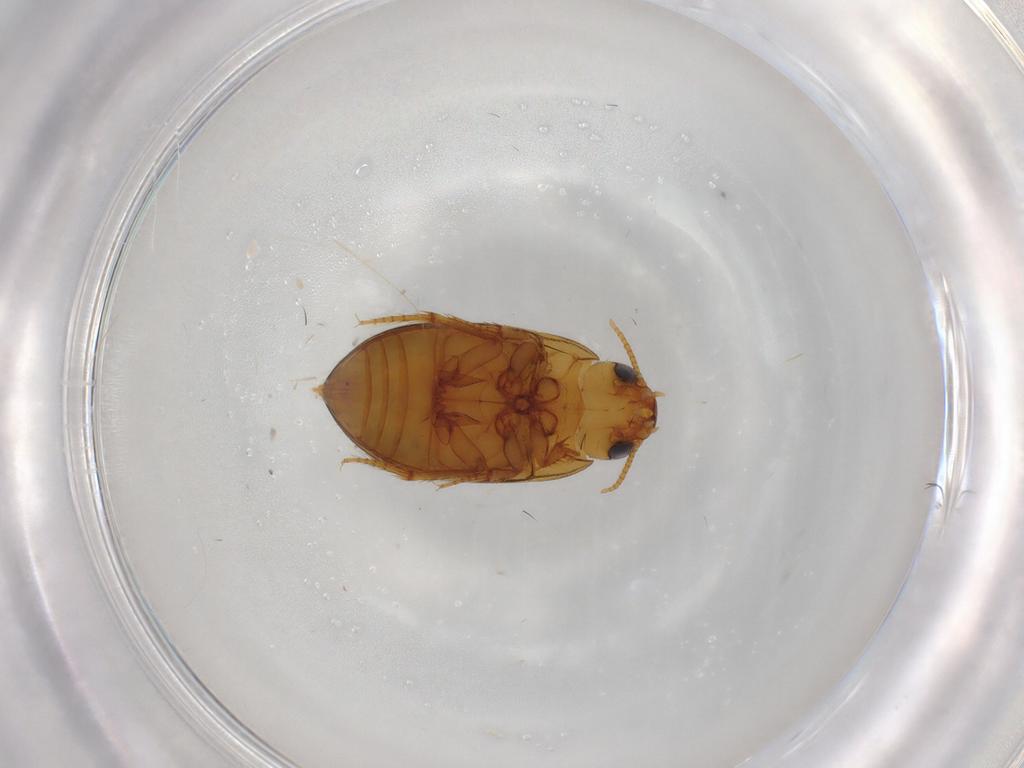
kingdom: Animalia
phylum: Arthropoda
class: Insecta
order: Coleoptera
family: Noteridae
